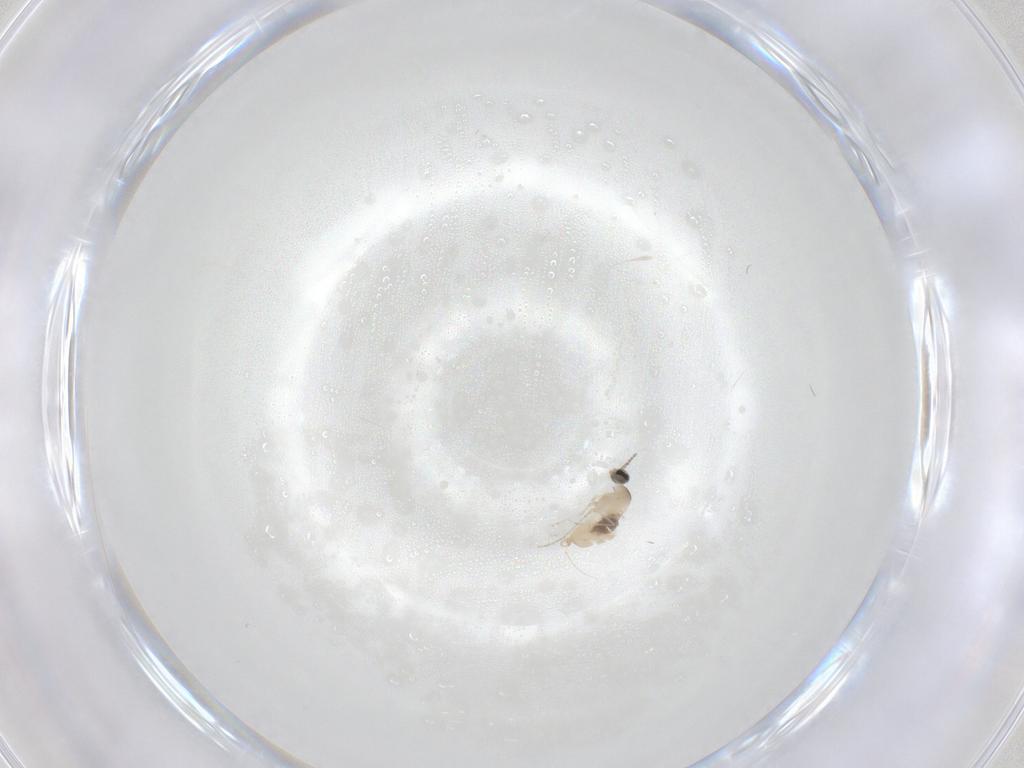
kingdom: Animalia
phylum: Arthropoda
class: Insecta
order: Diptera
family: Cecidomyiidae
